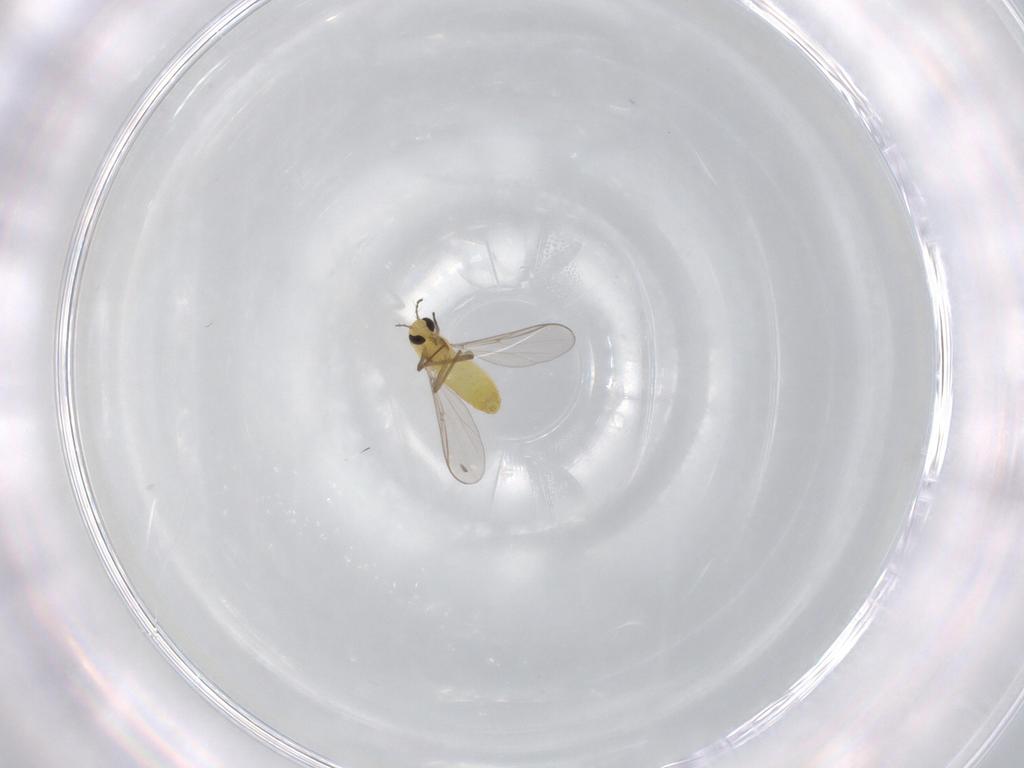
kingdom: Animalia
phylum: Arthropoda
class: Insecta
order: Diptera
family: Chironomidae
